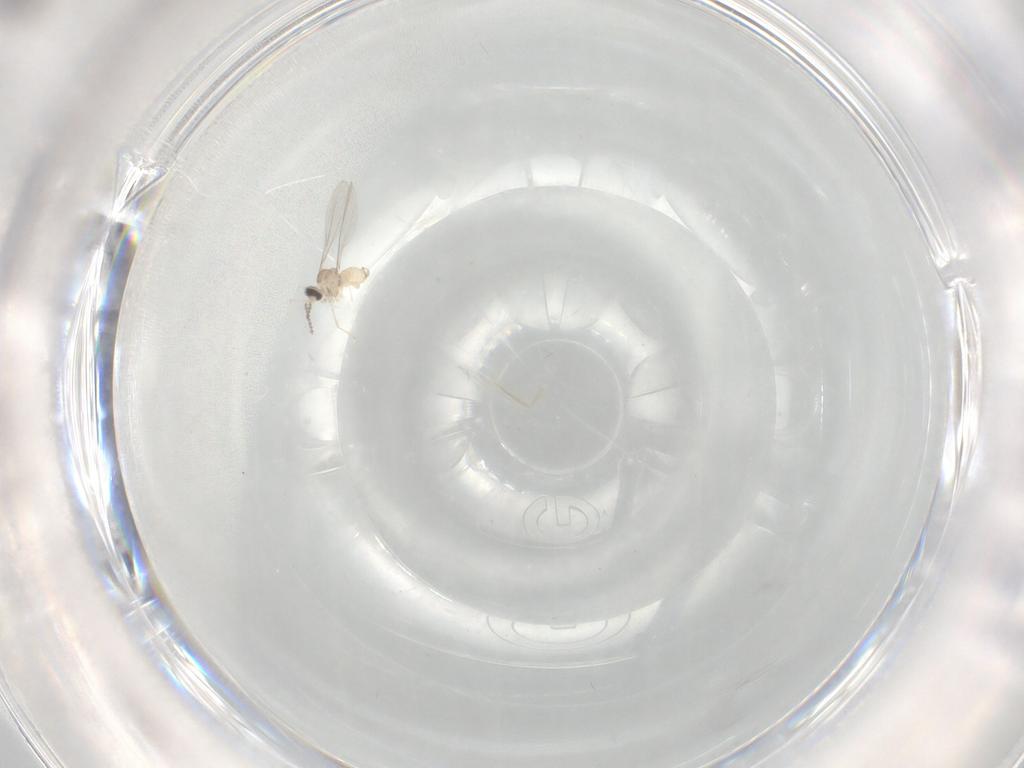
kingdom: Animalia
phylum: Arthropoda
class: Insecta
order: Diptera
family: Cecidomyiidae
